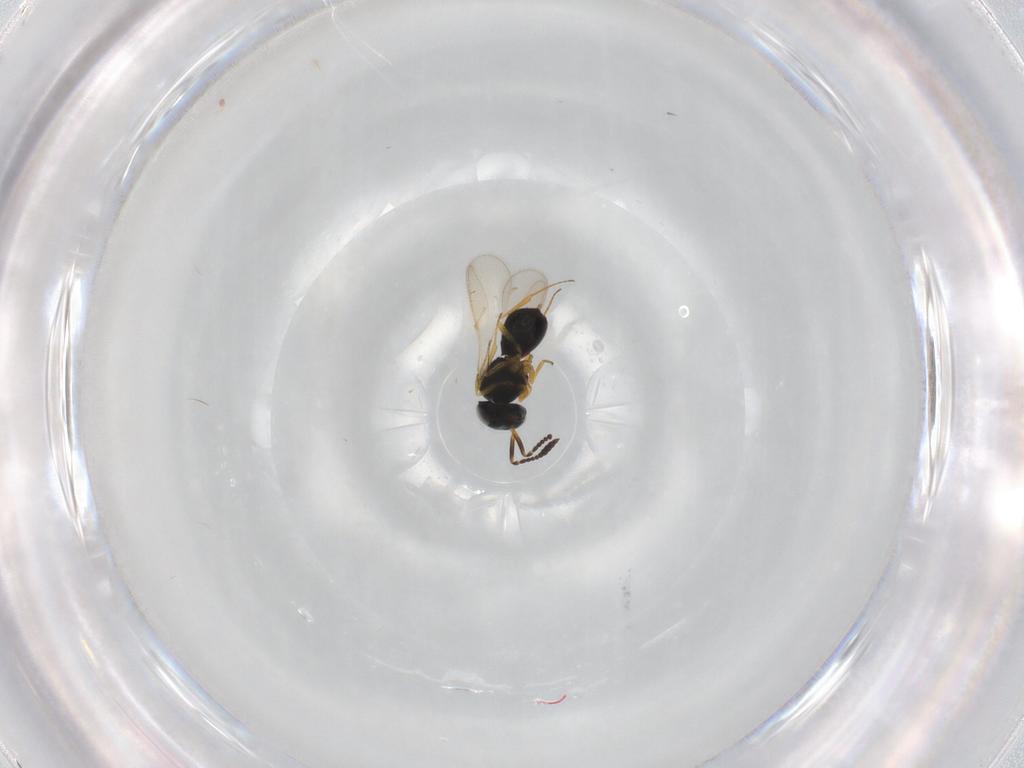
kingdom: Animalia
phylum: Arthropoda
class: Insecta
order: Hymenoptera
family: Scelionidae
